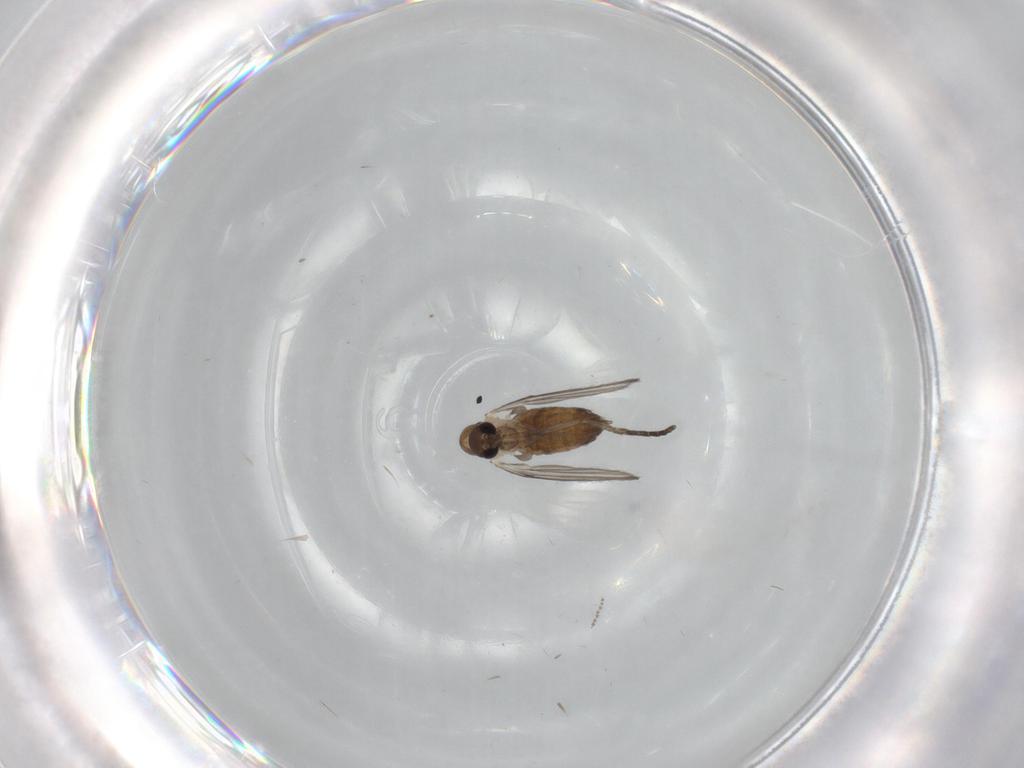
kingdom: Animalia
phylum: Arthropoda
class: Insecta
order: Diptera
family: Psychodidae
